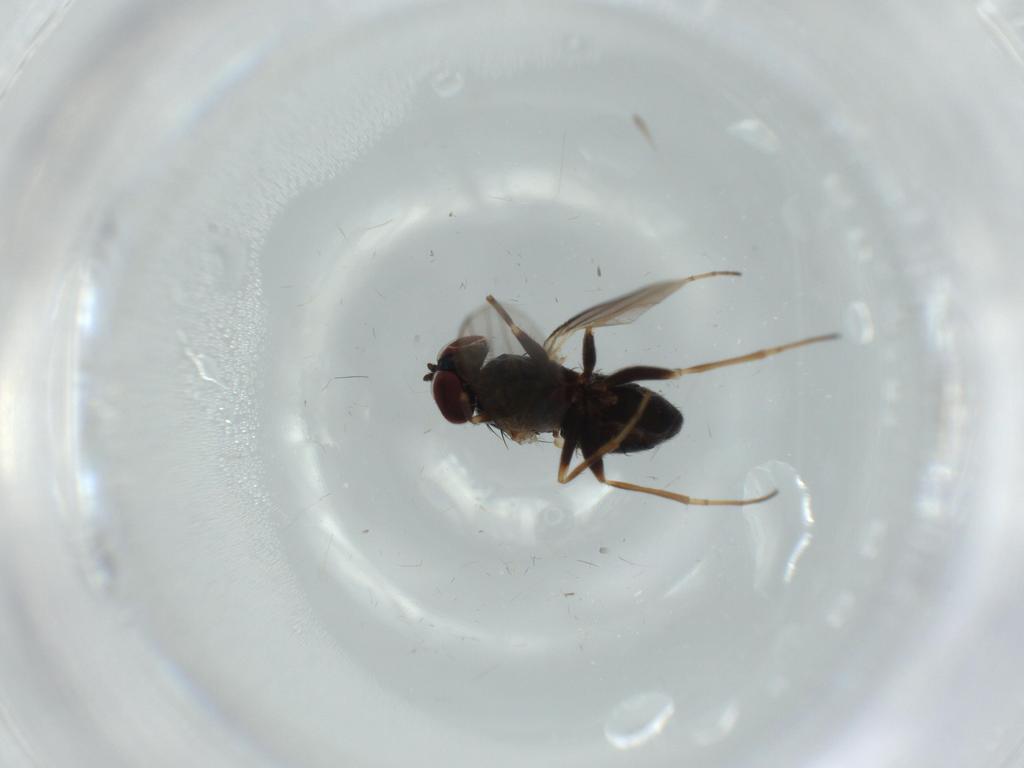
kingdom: Animalia
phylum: Arthropoda
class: Insecta
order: Diptera
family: Dolichopodidae
